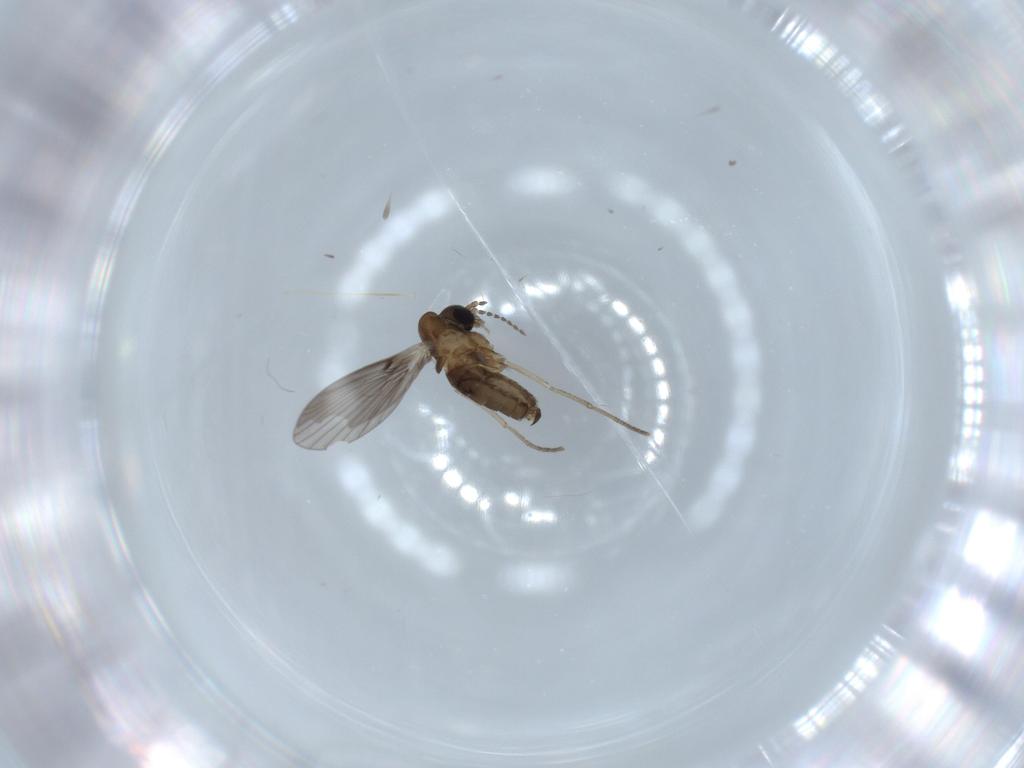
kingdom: Animalia
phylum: Arthropoda
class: Insecta
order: Diptera
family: Psychodidae
